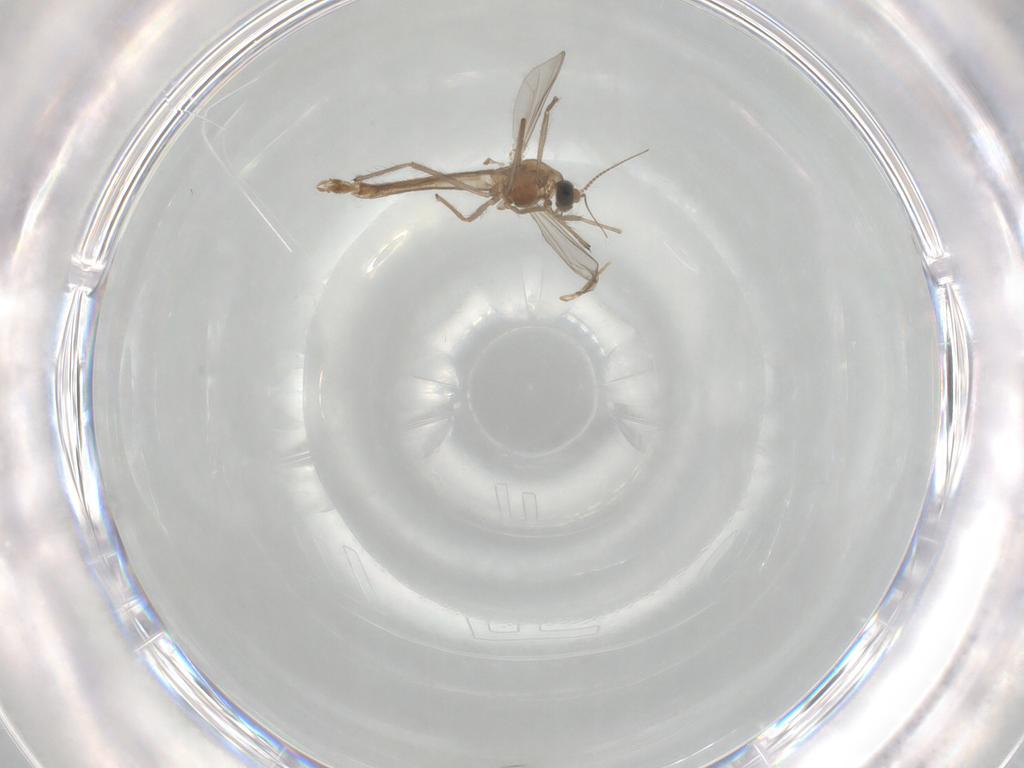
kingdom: Animalia
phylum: Arthropoda
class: Insecta
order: Diptera
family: Chironomidae
